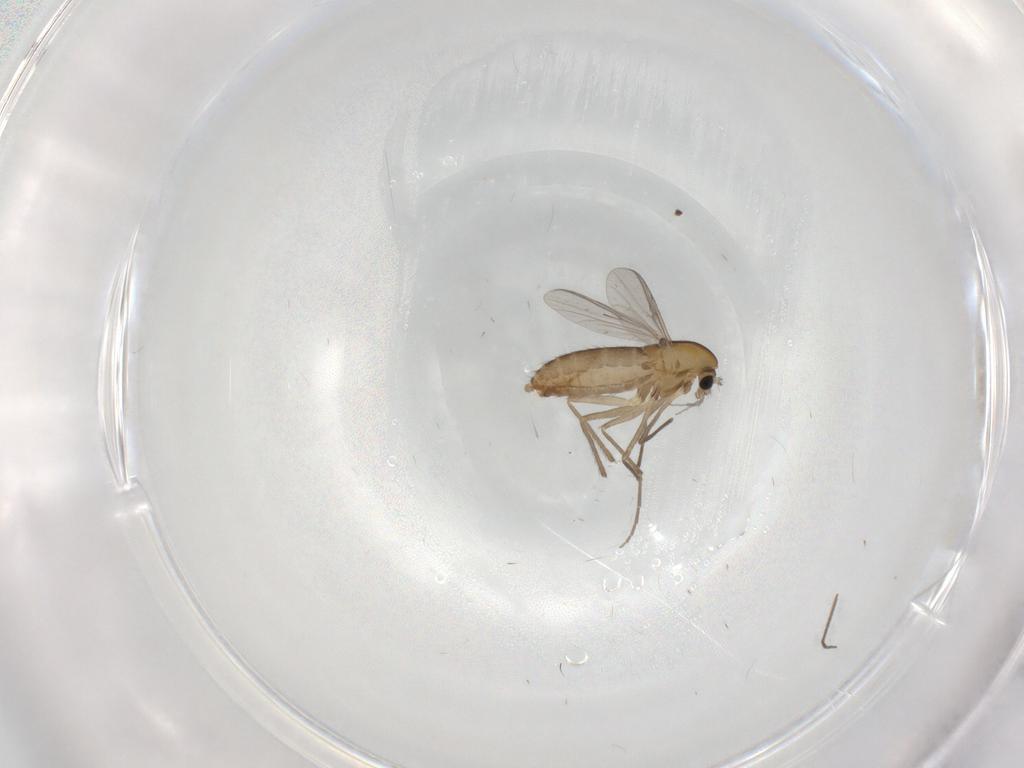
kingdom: Animalia
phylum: Arthropoda
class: Insecta
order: Diptera
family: Chironomidae
